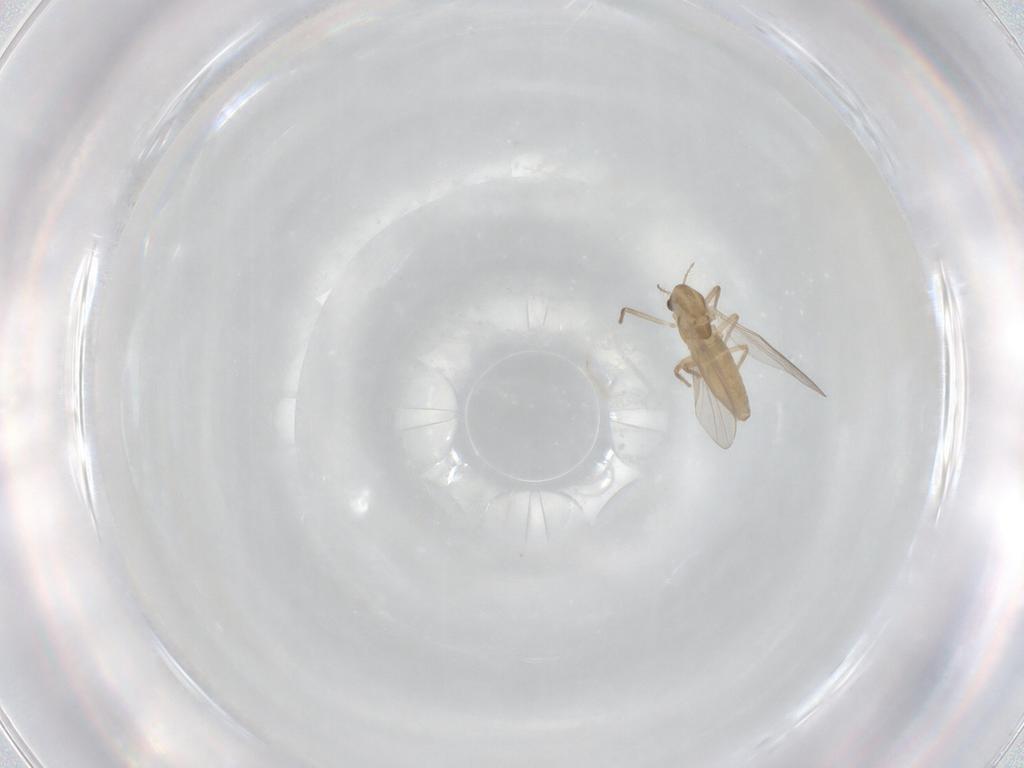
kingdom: Animalia
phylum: Arthropoda
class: Insecta
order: Diptera
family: Chironomidae
